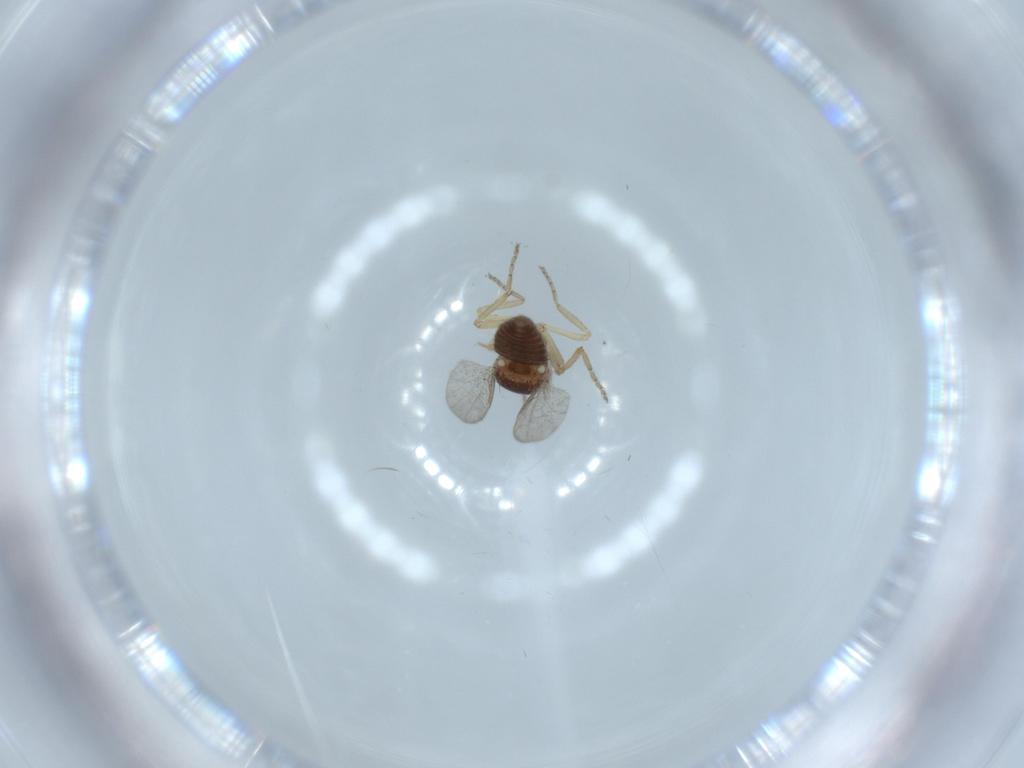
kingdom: Animalia
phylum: Arthropoda
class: Insecta
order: Diptera
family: Ceratopogonidae
